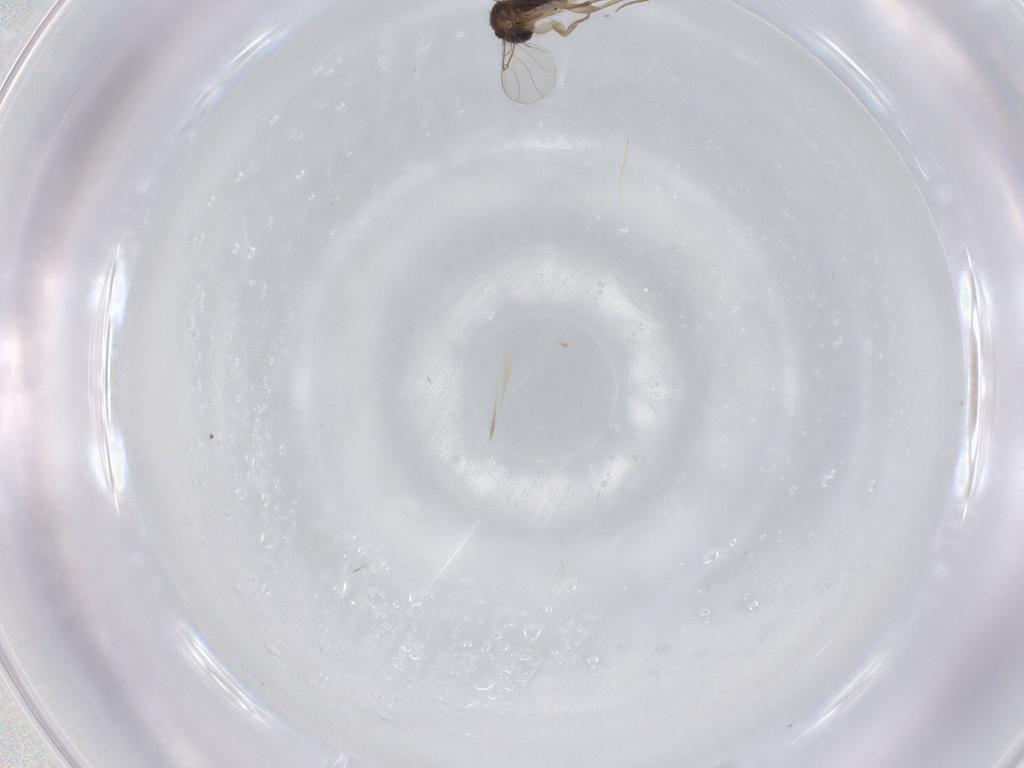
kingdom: Animalia
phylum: Arthropoda
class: Insecta
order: Diptera
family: Phoridae
